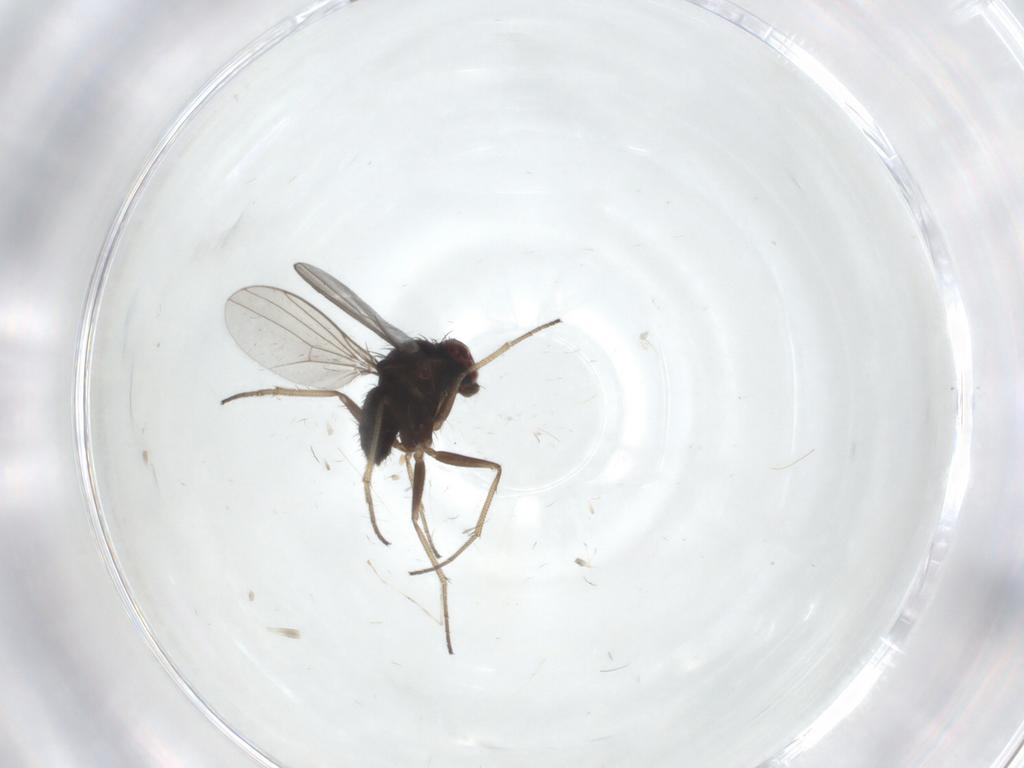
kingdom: Animalia
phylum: Arthropoda
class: Insecta
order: Diptera
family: Dolichopodidae
